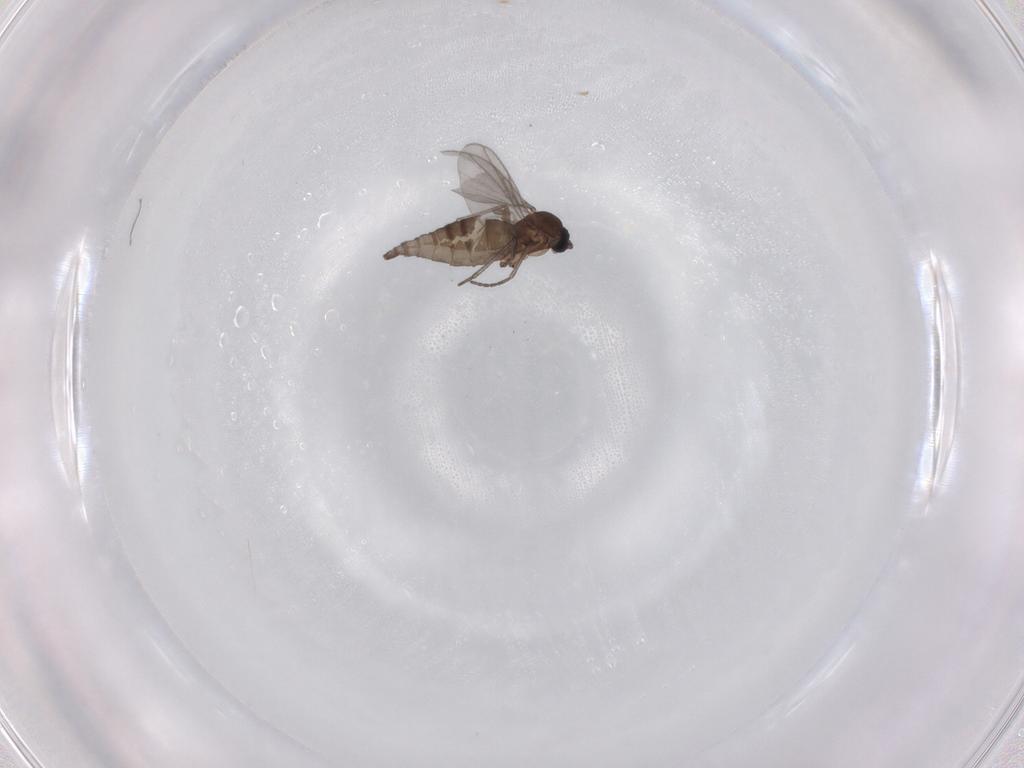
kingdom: Animalia
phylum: Arthropoda
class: Insecta
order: Diptera
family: Sciaridae
